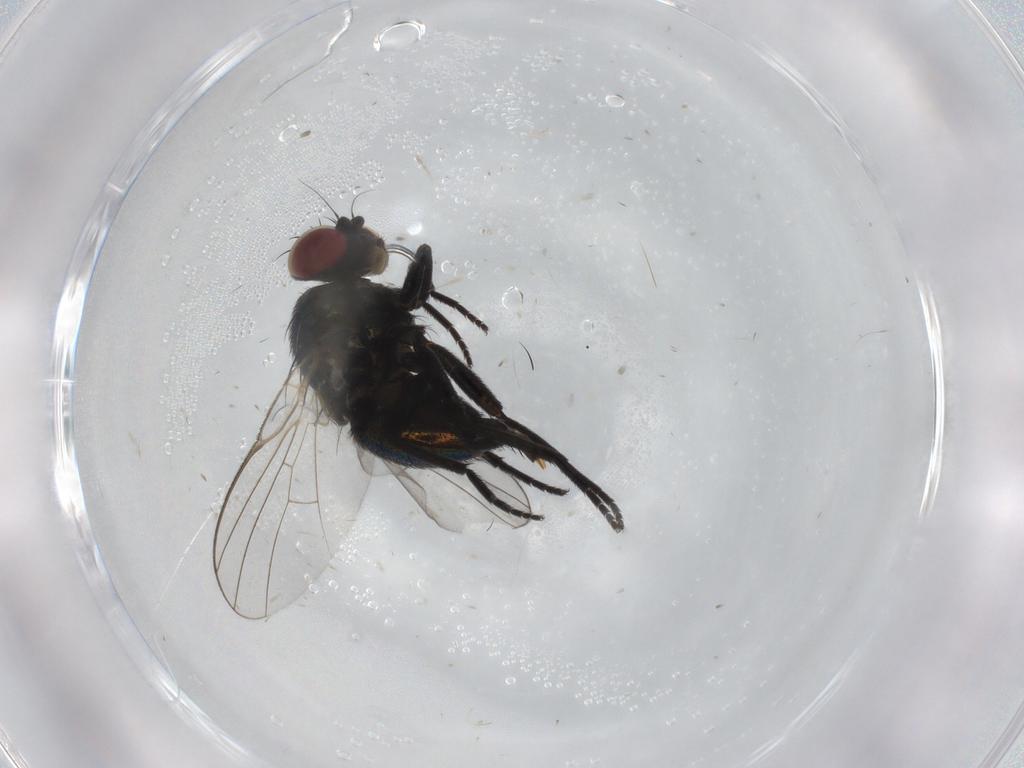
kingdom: Animalia
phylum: Arthropoda
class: Insecta
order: Diptera
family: Agromyzidae
